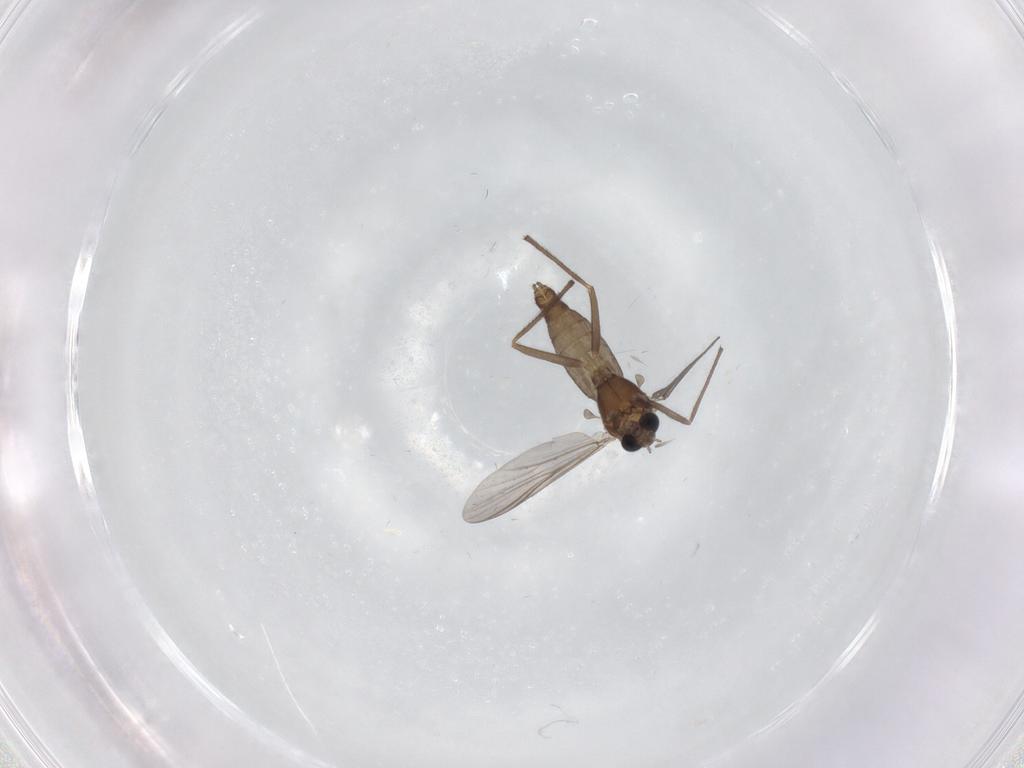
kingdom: Animalia
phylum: Arthropoda
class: Insecta
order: Diptera
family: Chironomidae
